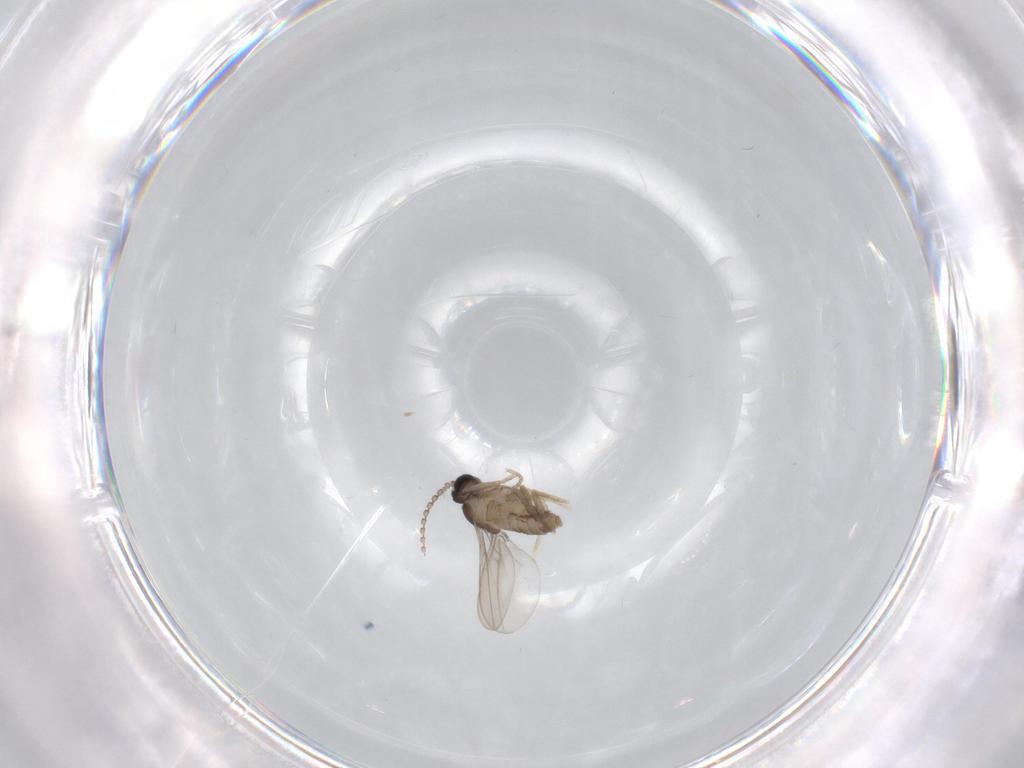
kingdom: Animalia
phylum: Arthropoda
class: Insecta
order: Diptera
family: Cecidomyiidae
